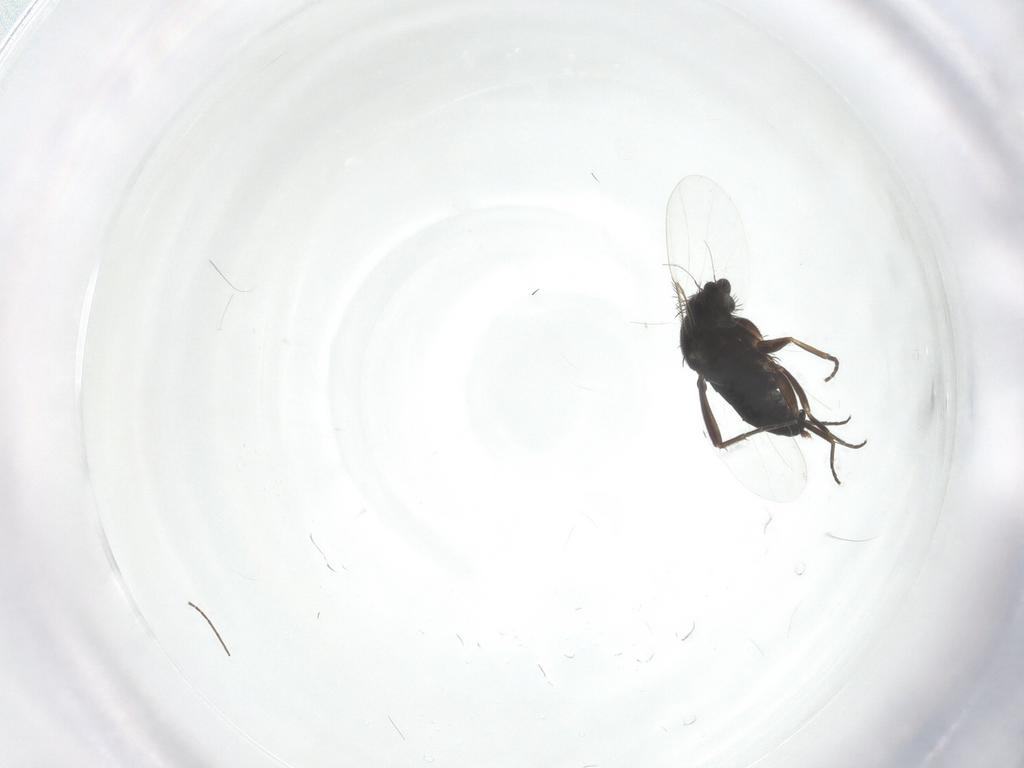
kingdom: Animalia
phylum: Arthropoda
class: Insecta
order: Diptera
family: Phoridae
